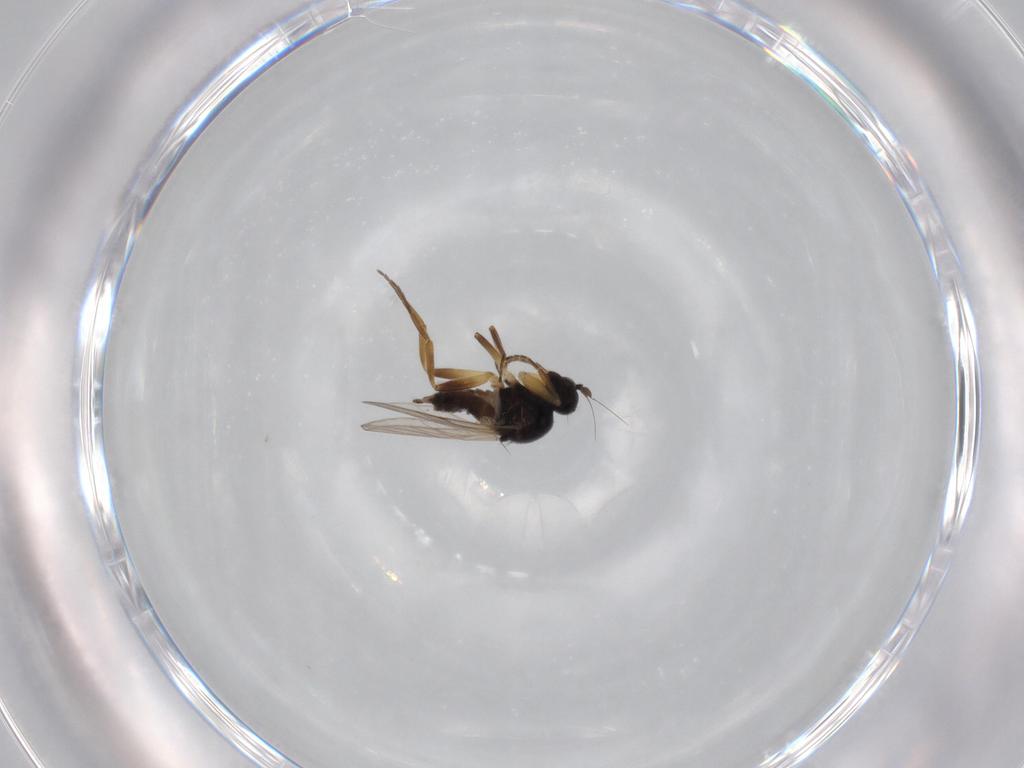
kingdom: Animalia
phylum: Arthropoda
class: Insecta
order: Diptera
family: Hybotidae
